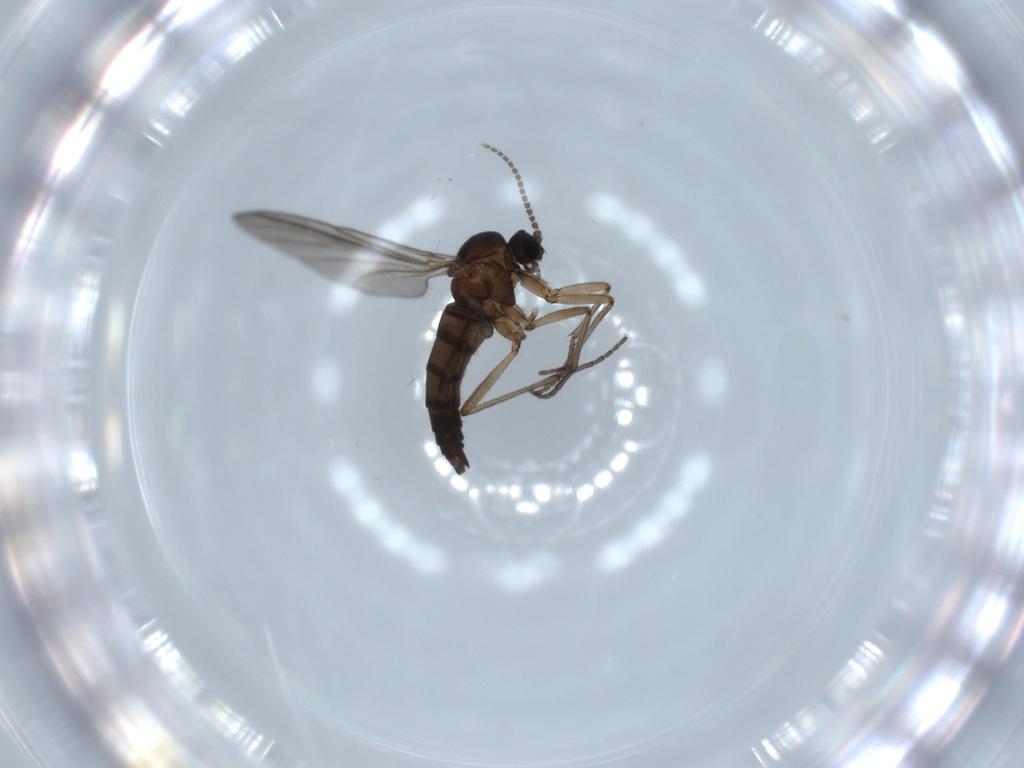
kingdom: Animalia
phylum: Arthropoda
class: Insecta
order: Diptera
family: Sciaridae
